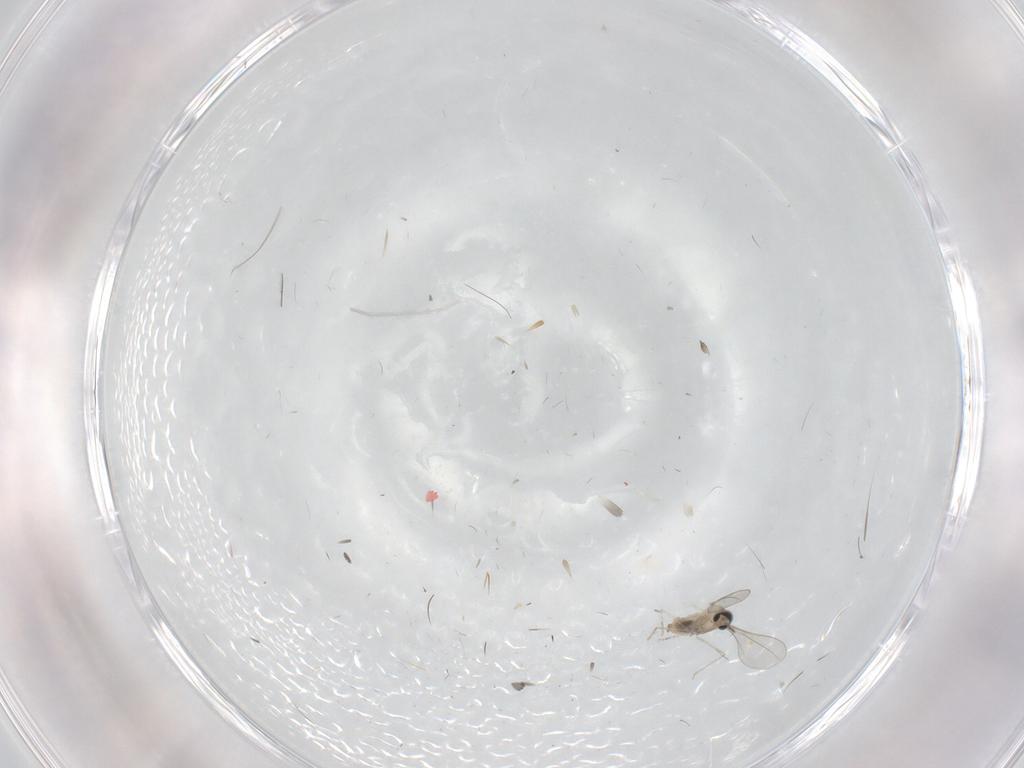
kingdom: Animalia
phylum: Arthropoda
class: Insecta
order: Diptera
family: Cecidomyiidae
